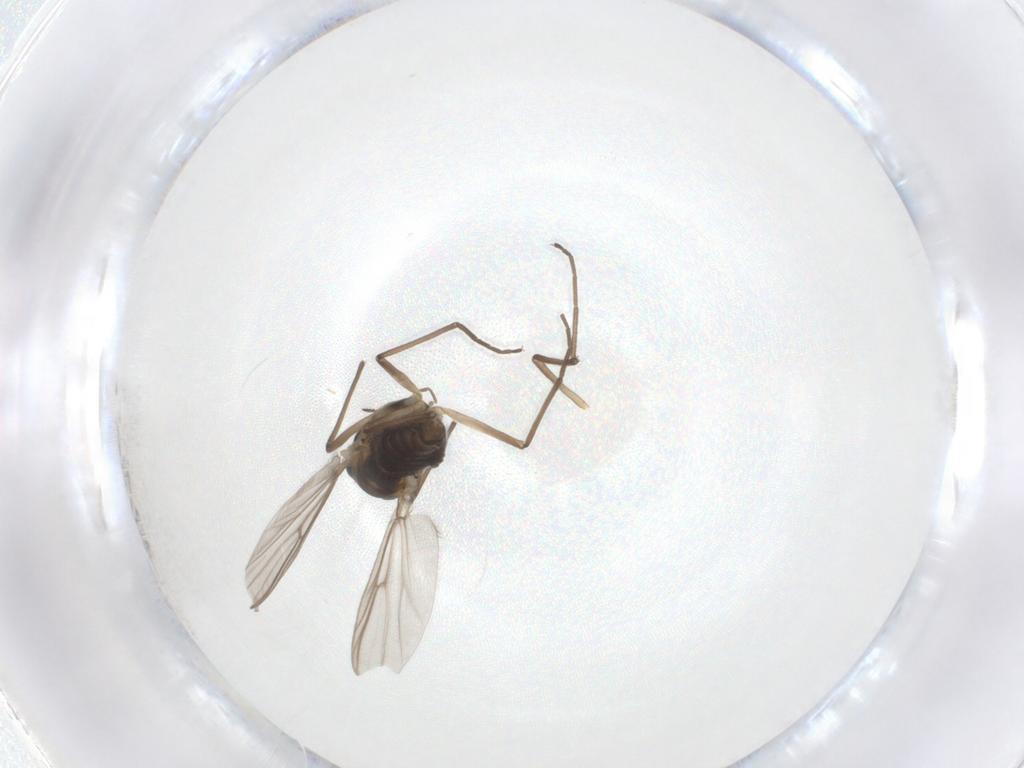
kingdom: Animalia
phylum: Arthropoda
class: Insecta
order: Diptera
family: Chironomidae
